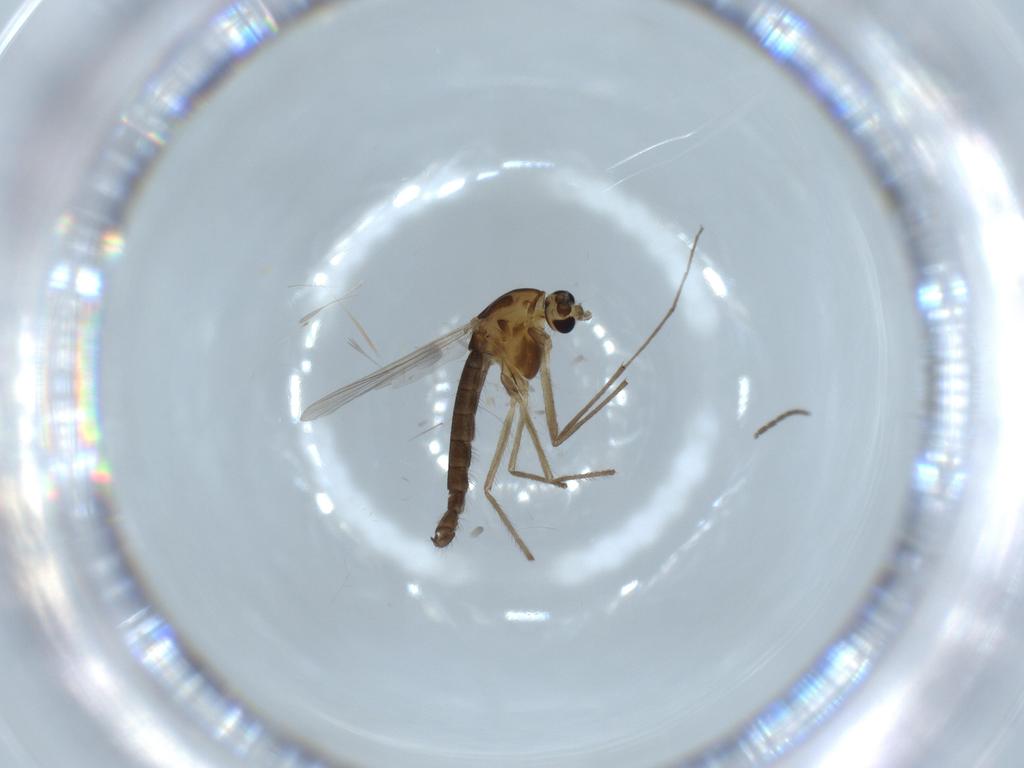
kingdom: Animalia
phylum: Arthropoda
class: Insecta
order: Diptera
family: Chironomidae
